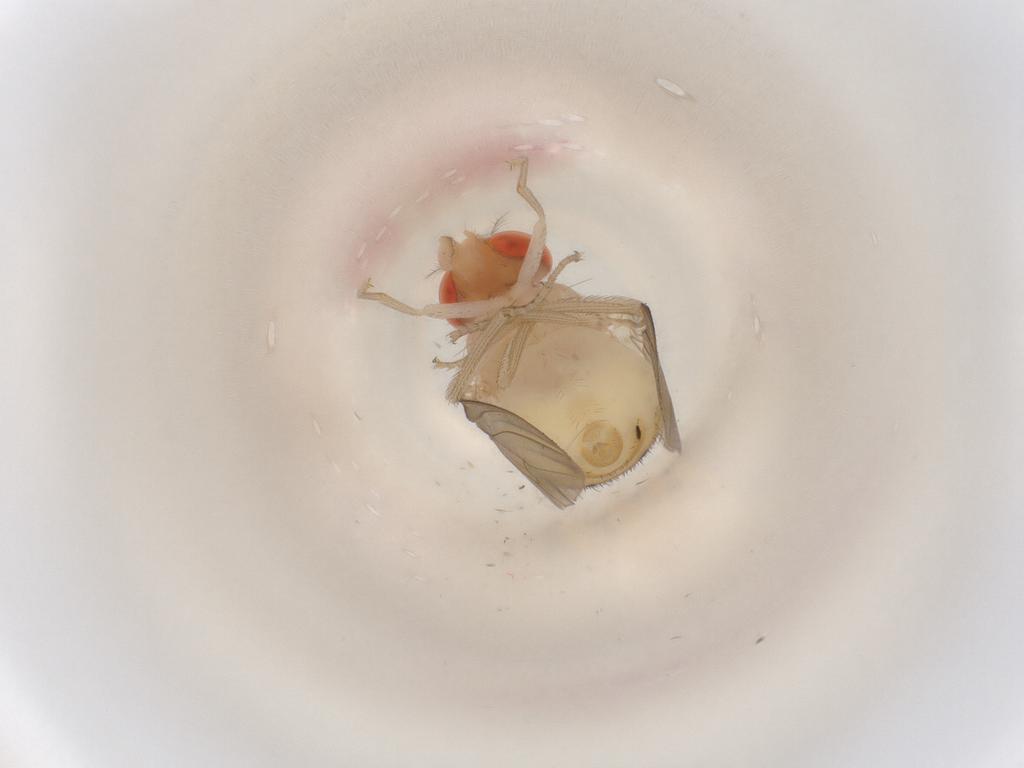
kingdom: Animalia
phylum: Arthropoda
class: Insecta
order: Diptera
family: Drosophilidae
